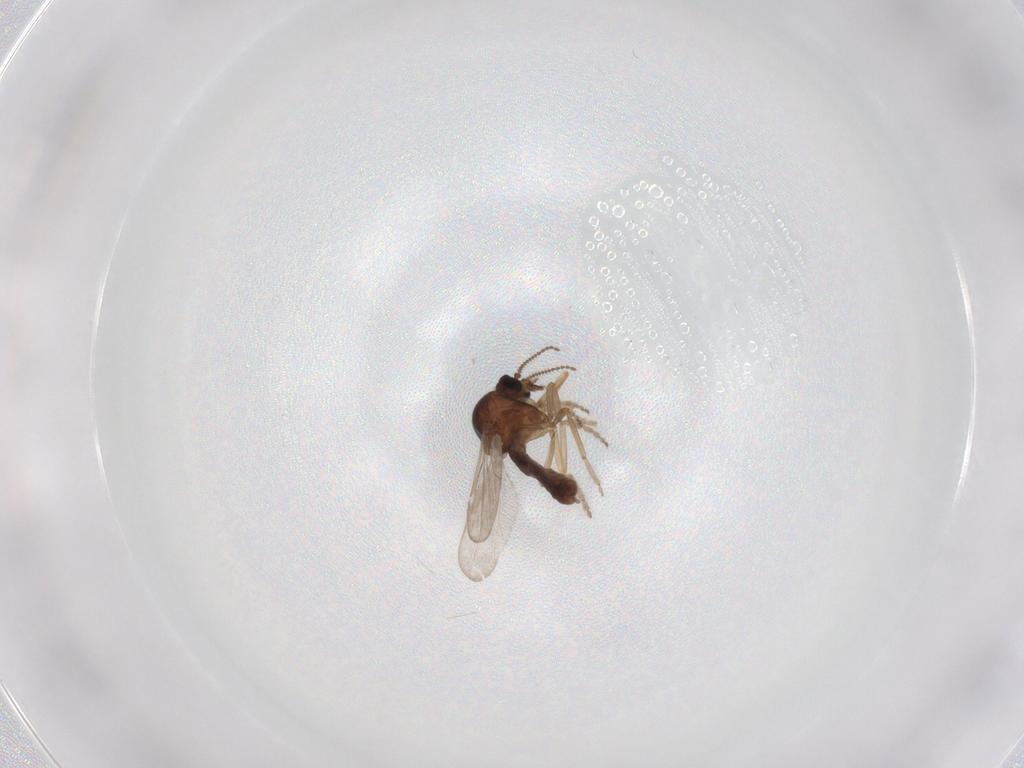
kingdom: Animalia
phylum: Arthropoda
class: Insecta
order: Diptera
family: Ceratopogonidae
